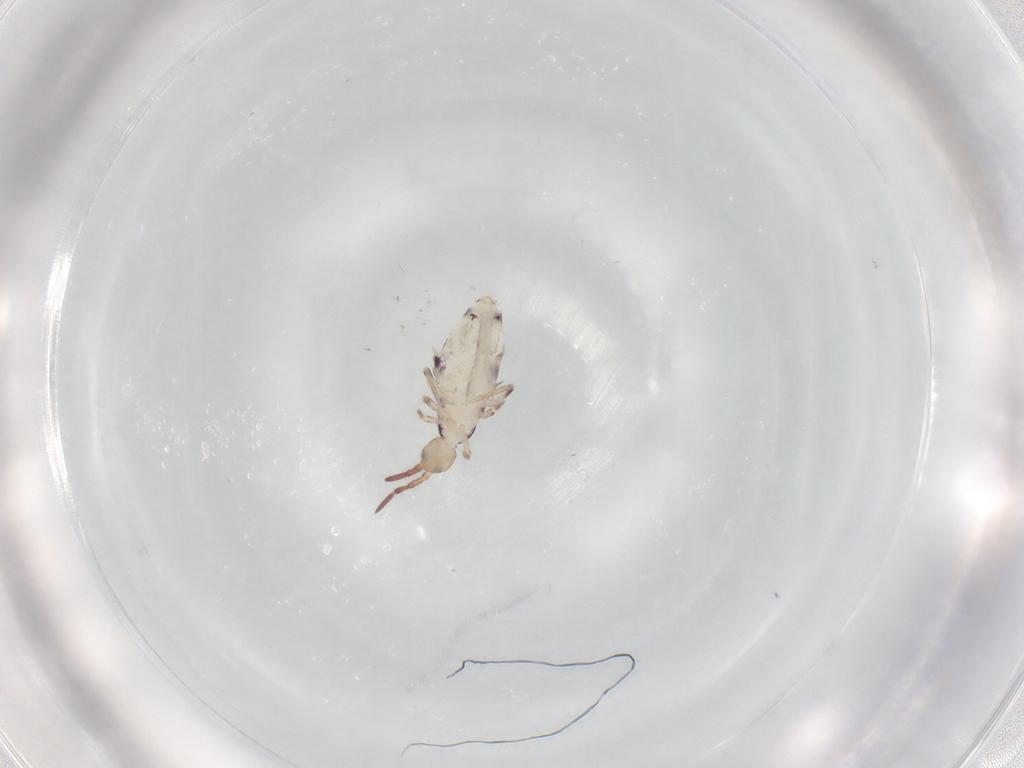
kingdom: Animalia
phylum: Arthropoda
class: Collembola
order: Entomobryomorpha
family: Entomobryidae
